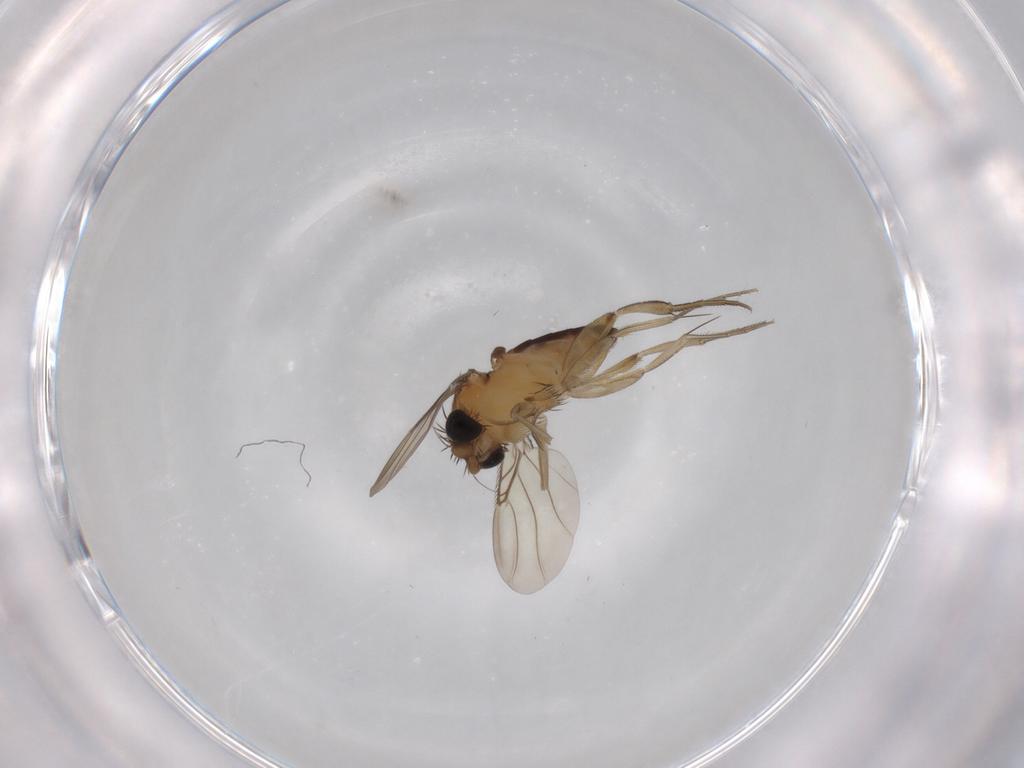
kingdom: Animalia
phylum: Arthropoda
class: Insecta
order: Diptera
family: Phoridae
